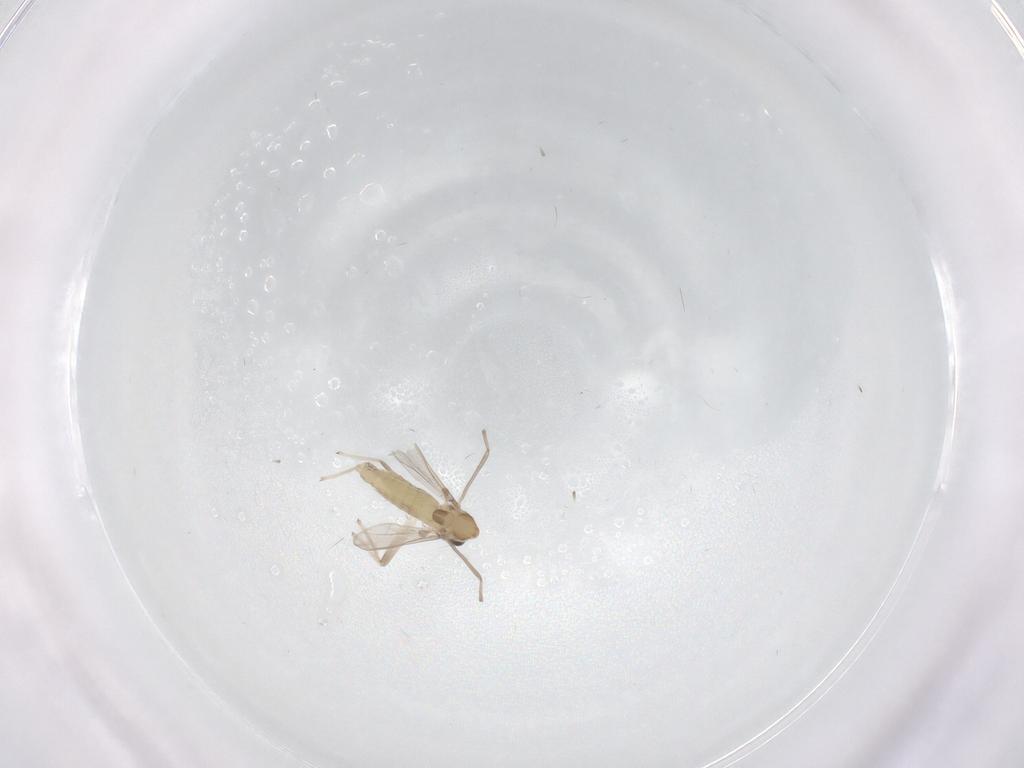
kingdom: Animalia
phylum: Arthropoda
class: Insecta
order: Diptera
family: Chironomidae
